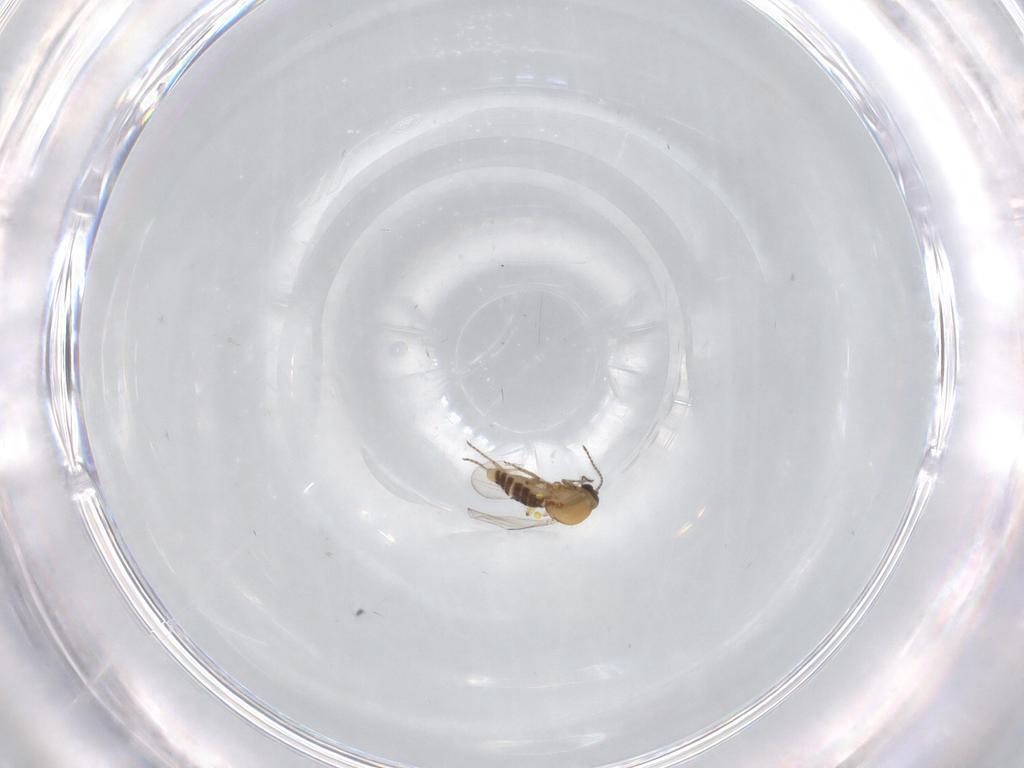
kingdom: Animalia
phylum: Arthropoda
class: Insecta
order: Diptera
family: Ceratopogonidae
